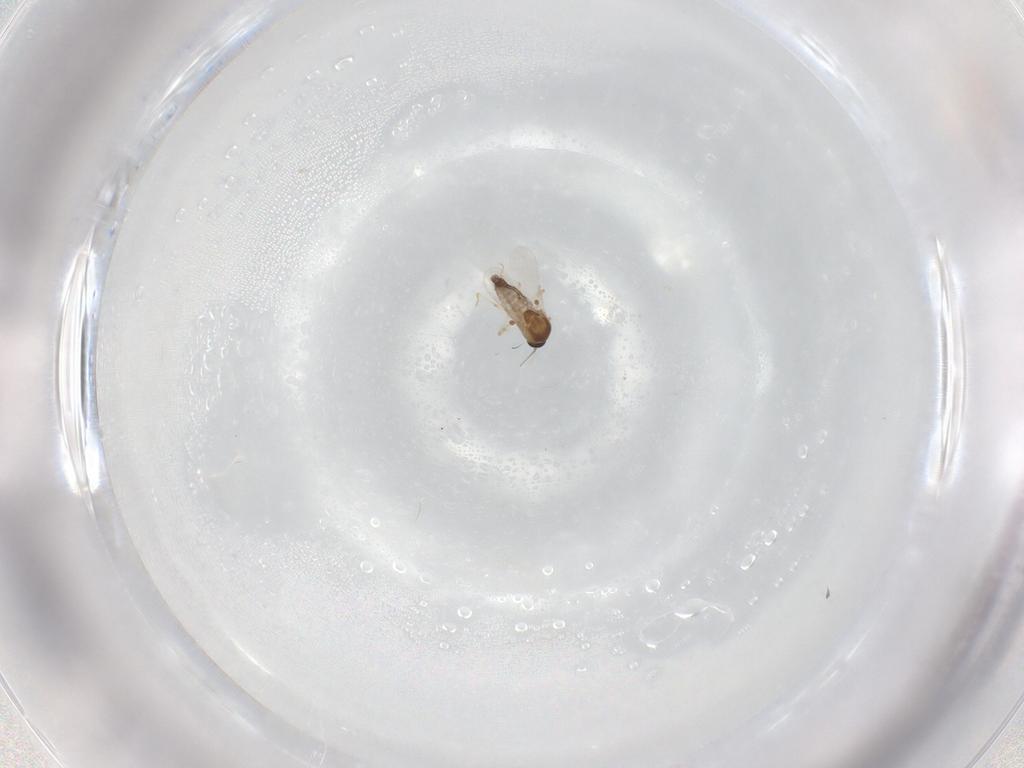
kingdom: Animalia
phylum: Arthropoda
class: Insecta
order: Diptera
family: Ceratopogonidae
